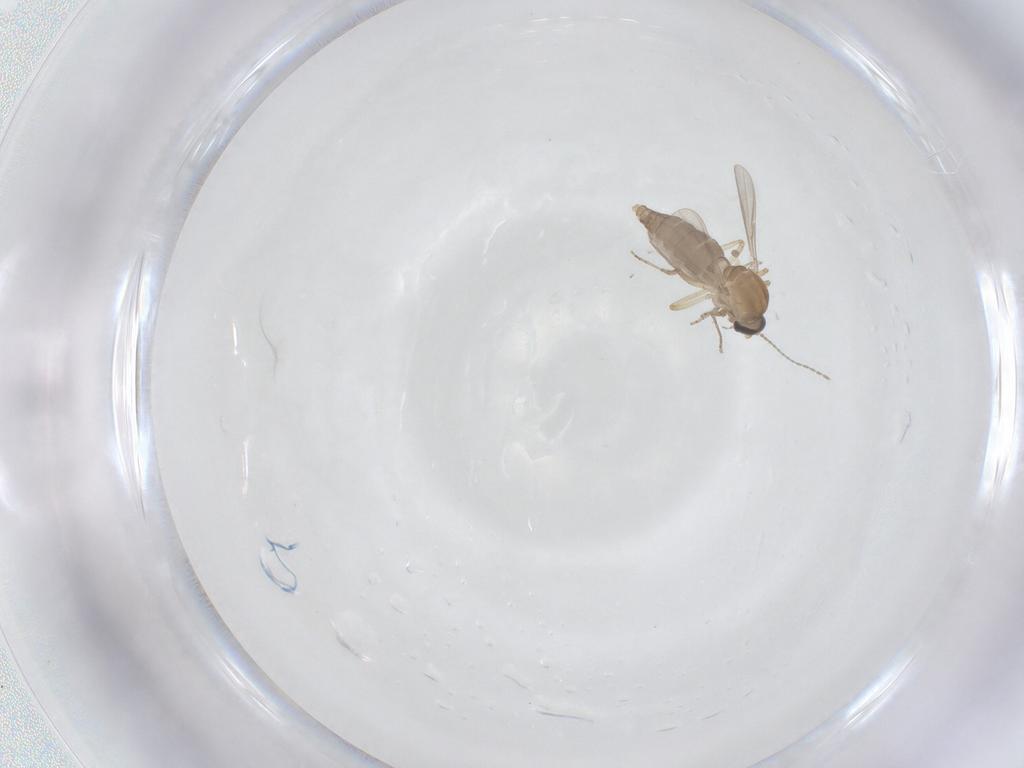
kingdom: Animalia
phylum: Arthropoda
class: Insecta
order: Diptera
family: Ceratopogonidae
